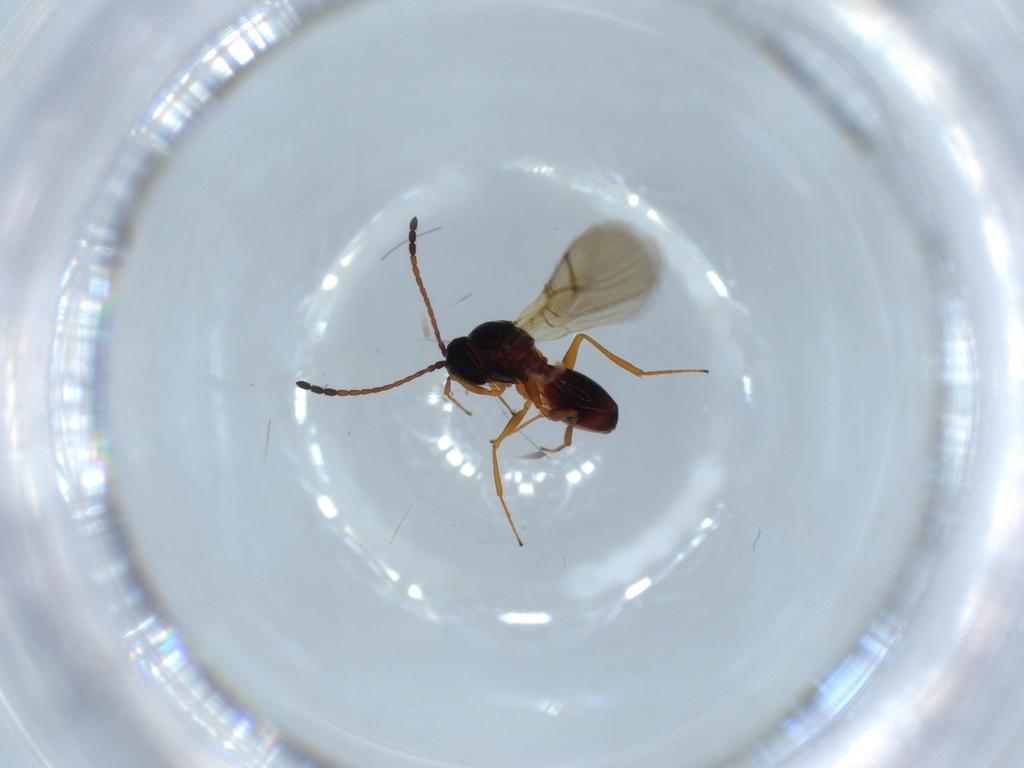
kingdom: Animalia
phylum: Arthropoda
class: Insecta
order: Hymenoptera
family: Figitidae
